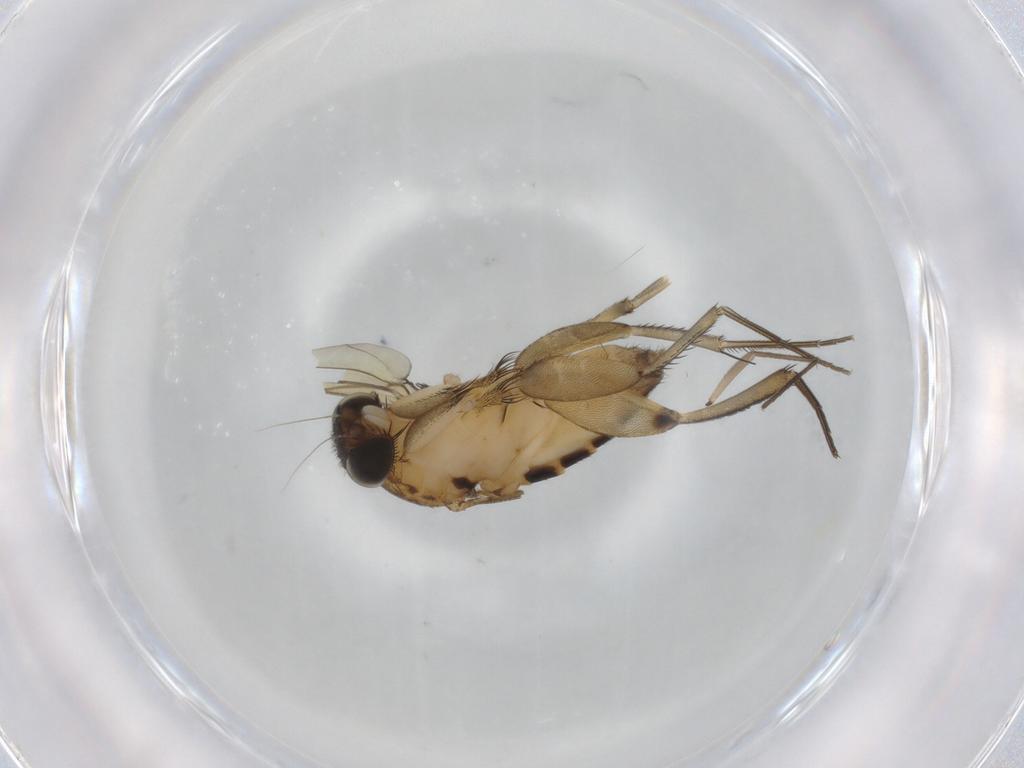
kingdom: Animalia
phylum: Arthropoda
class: Insecta
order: Diptera
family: Phoridae
